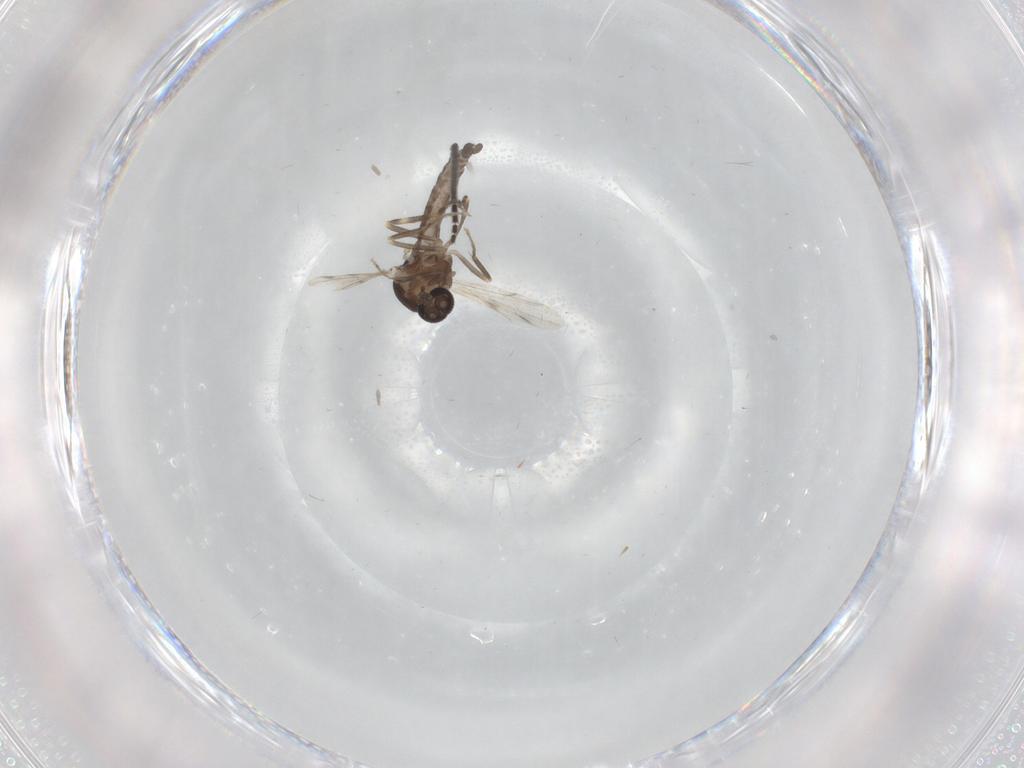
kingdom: Animalia
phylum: Arthropoda
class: Insecta
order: Diptera
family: Ceratopogonidae
